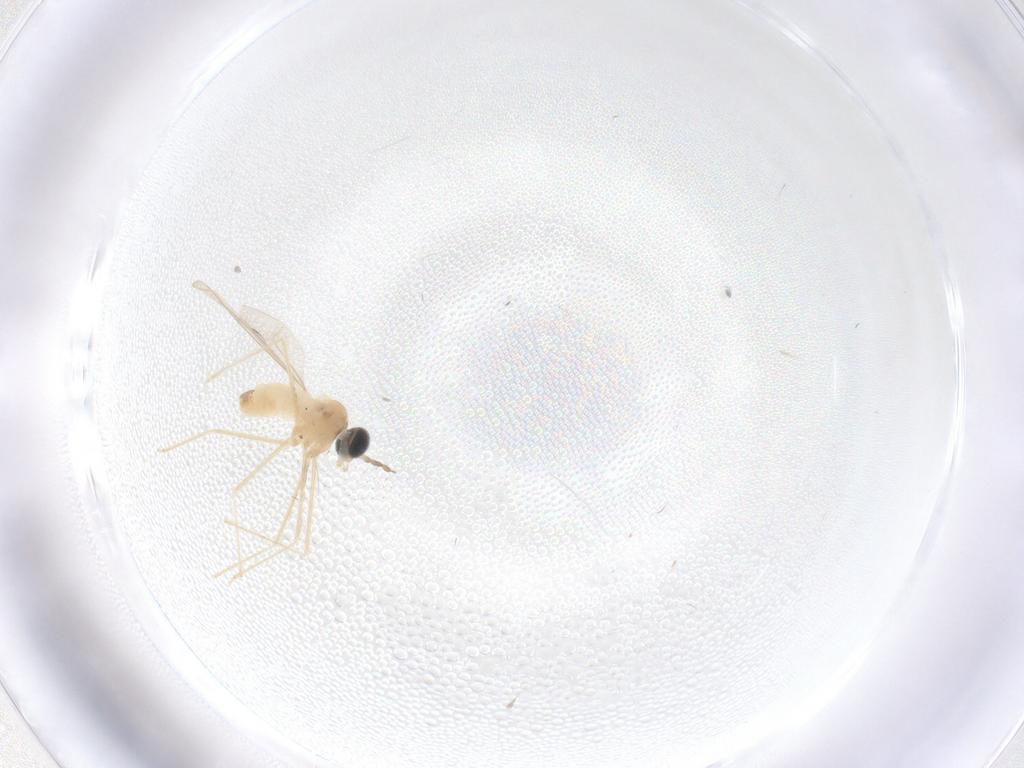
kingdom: Animalia
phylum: Arthropoda
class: Insecta
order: Diptera
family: Cecidomyiidae
